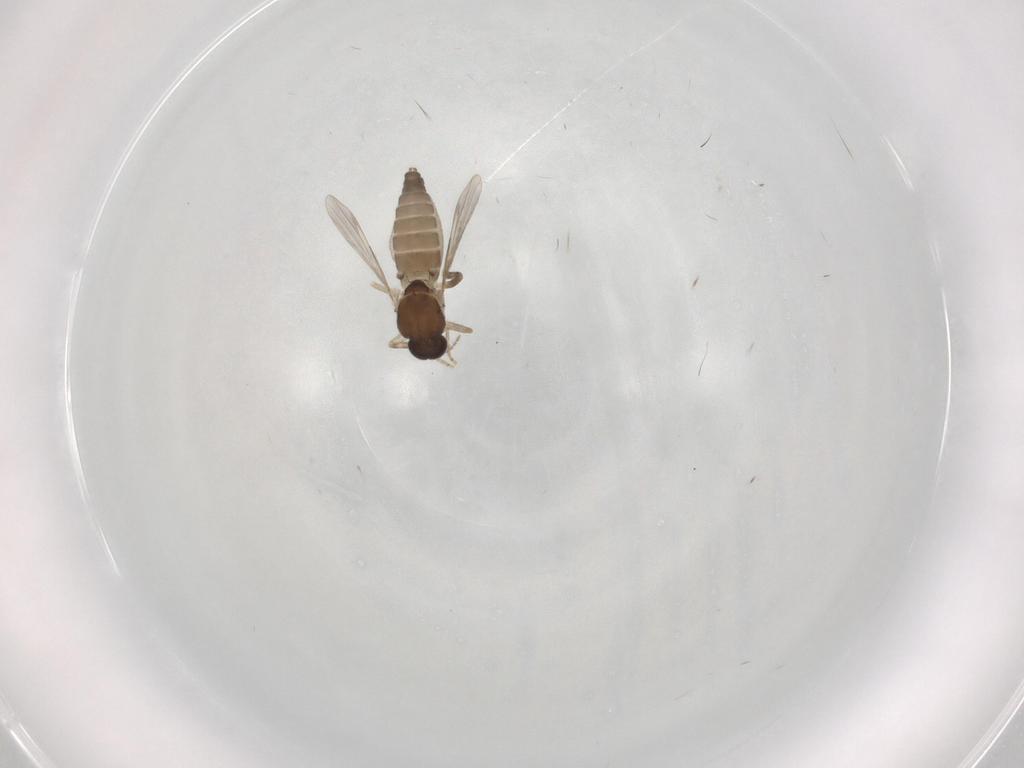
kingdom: Animalia
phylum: Arthropoda
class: Insecta
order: Diptera
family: Ceratopogonidae
